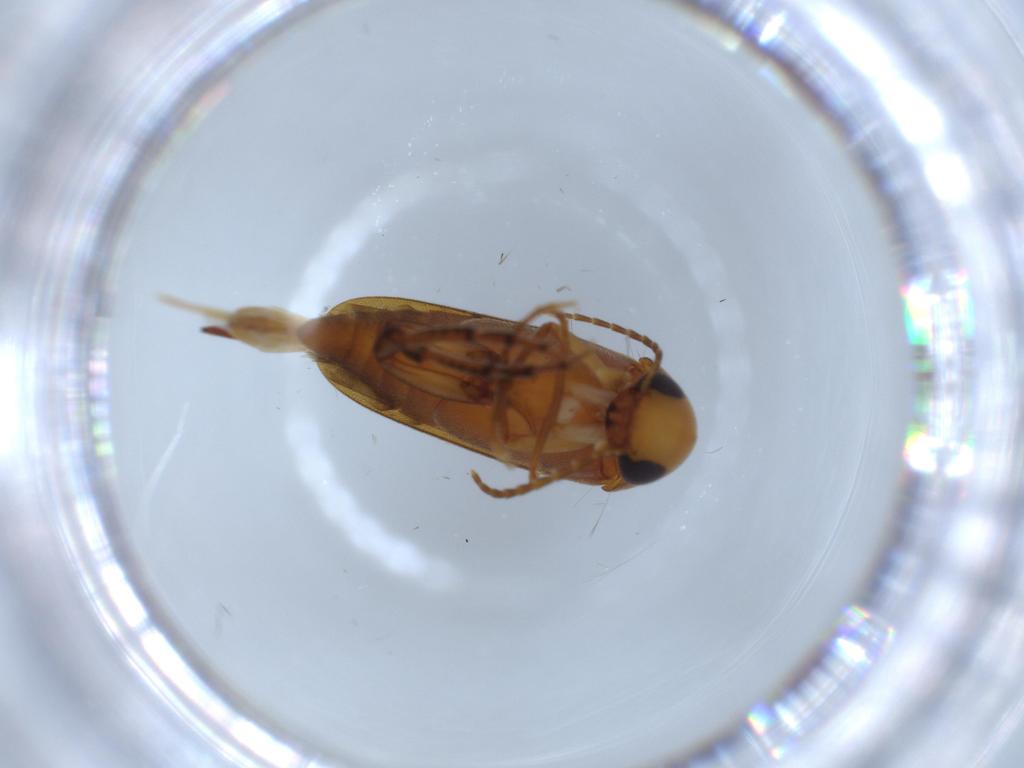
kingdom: Animalia
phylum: Arthropoda
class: Insecta
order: Coleoptera
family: Mordellidae
